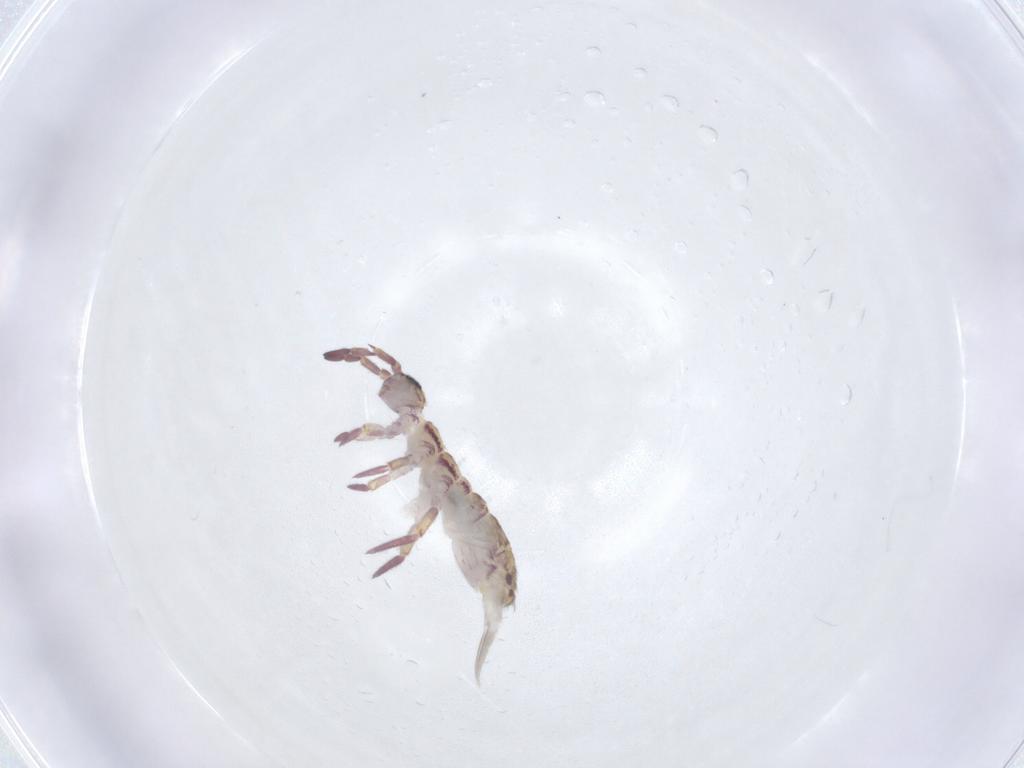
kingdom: Animalia
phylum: Arthropoda
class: Collembola
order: Entomobryomorpha
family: Isotomidae
